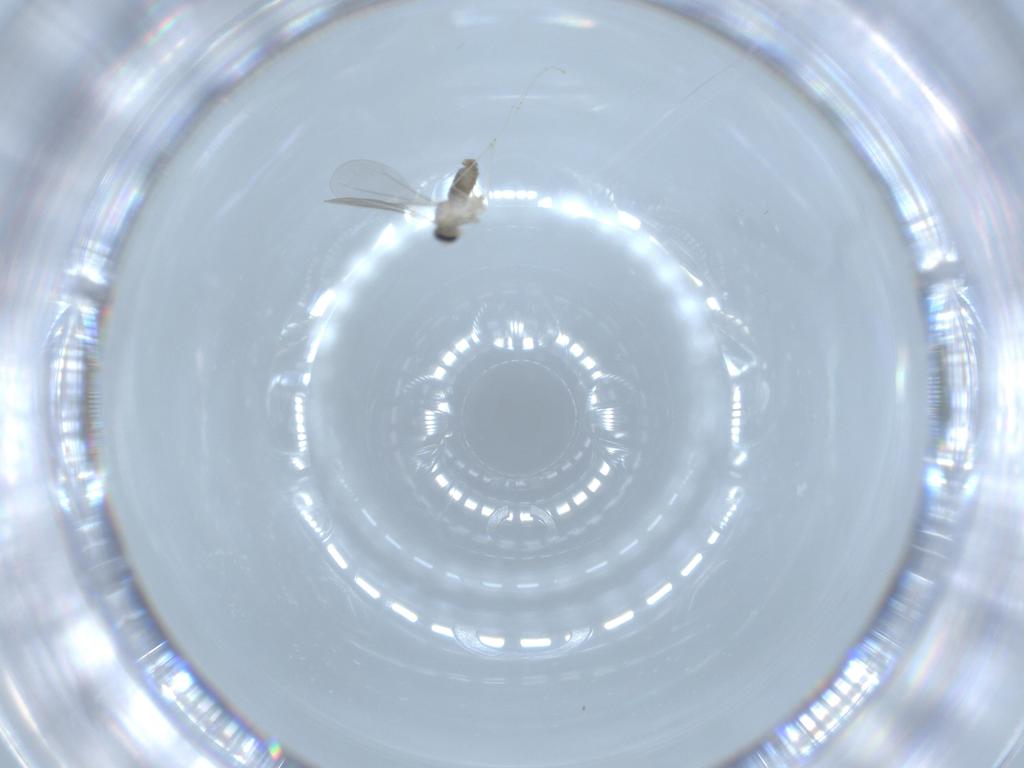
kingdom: Animalia
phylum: Arthropoda
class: Insecta
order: Diptera
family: Cecidomyiidae
